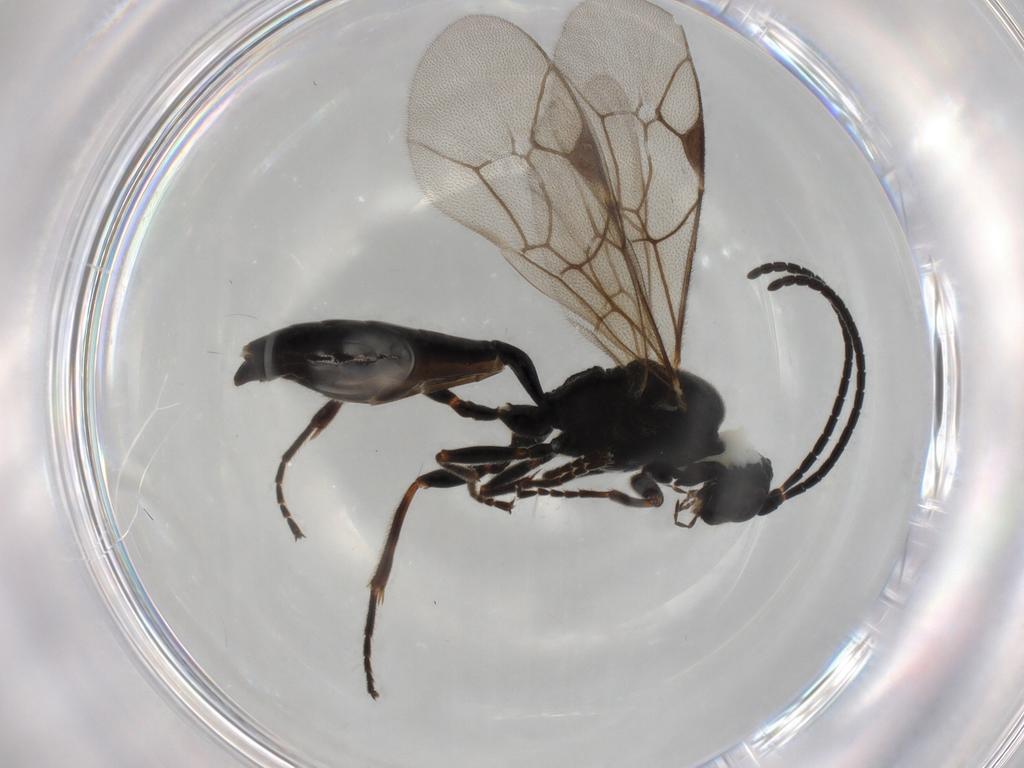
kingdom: Animalia
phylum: Arthropoda
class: Insecta
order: Hymenoptera
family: Ichneumonidae
